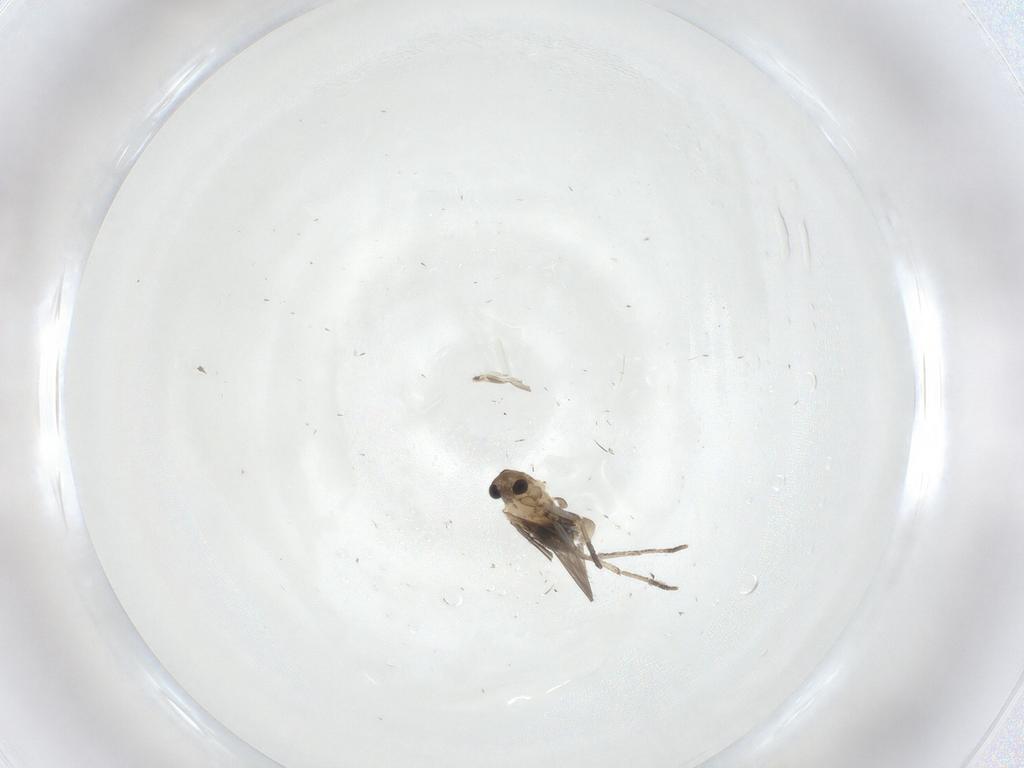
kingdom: Animalia
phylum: Arthropoda
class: Insecta
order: Diptera
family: Psychodidae
